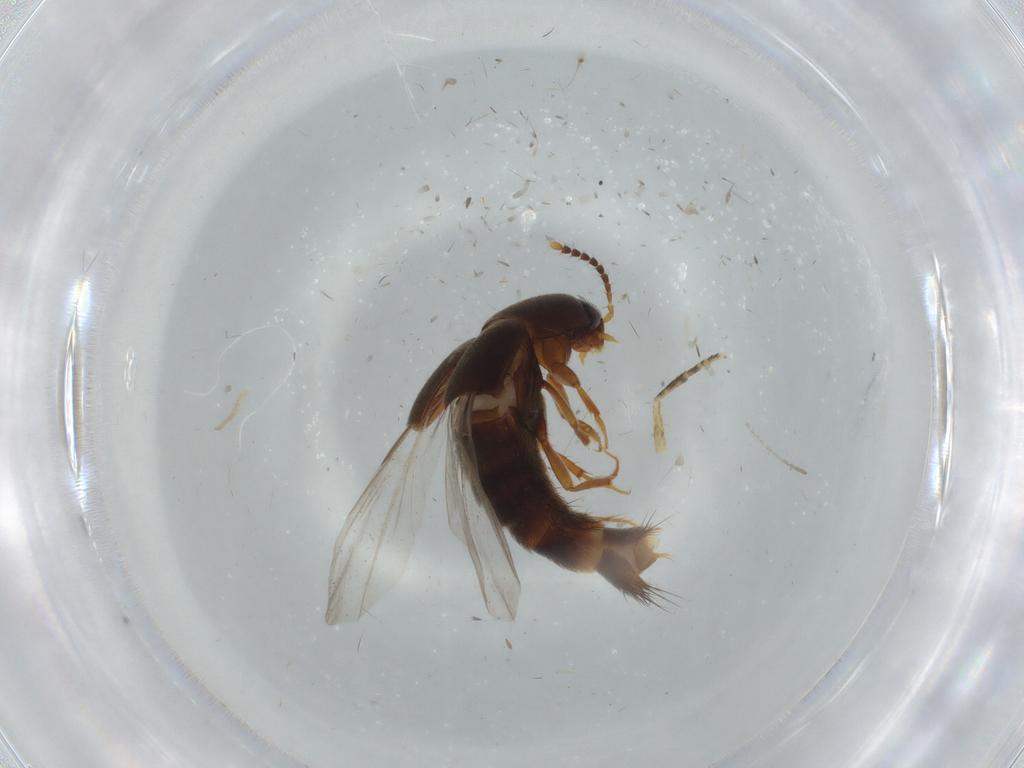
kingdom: Animalia
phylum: Arthropoda
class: Insecta
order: Coleoptera
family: Staphylinidae
